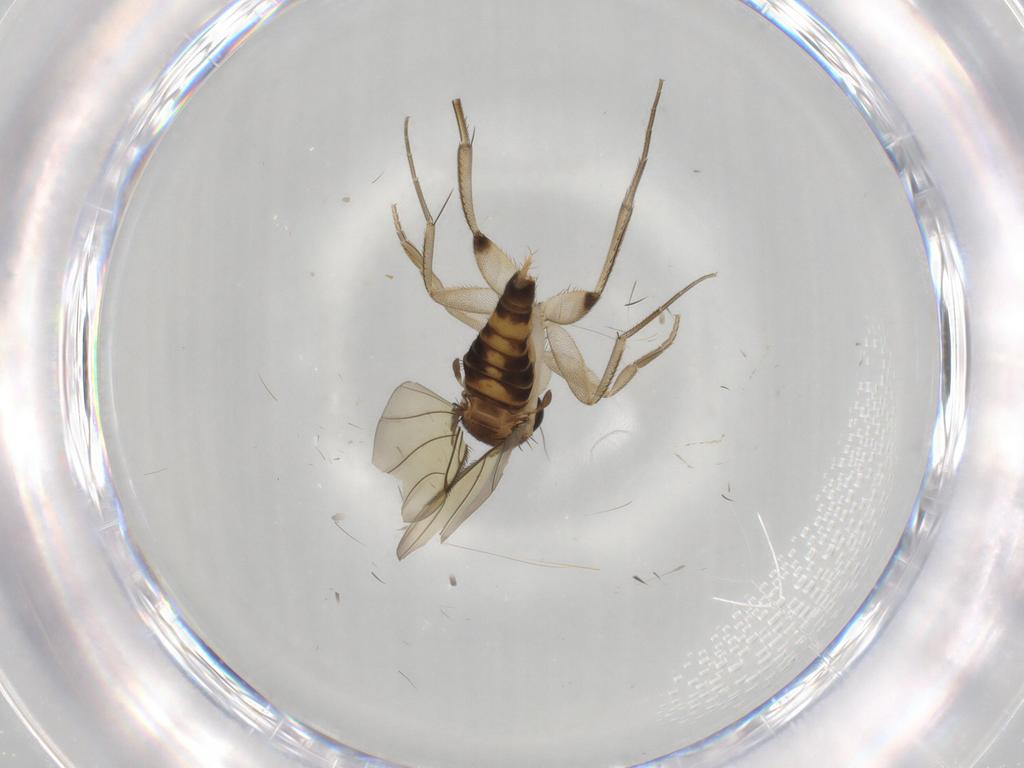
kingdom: Animalia
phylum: Arthropoda
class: Insecta
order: Diptera
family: Phoridae
